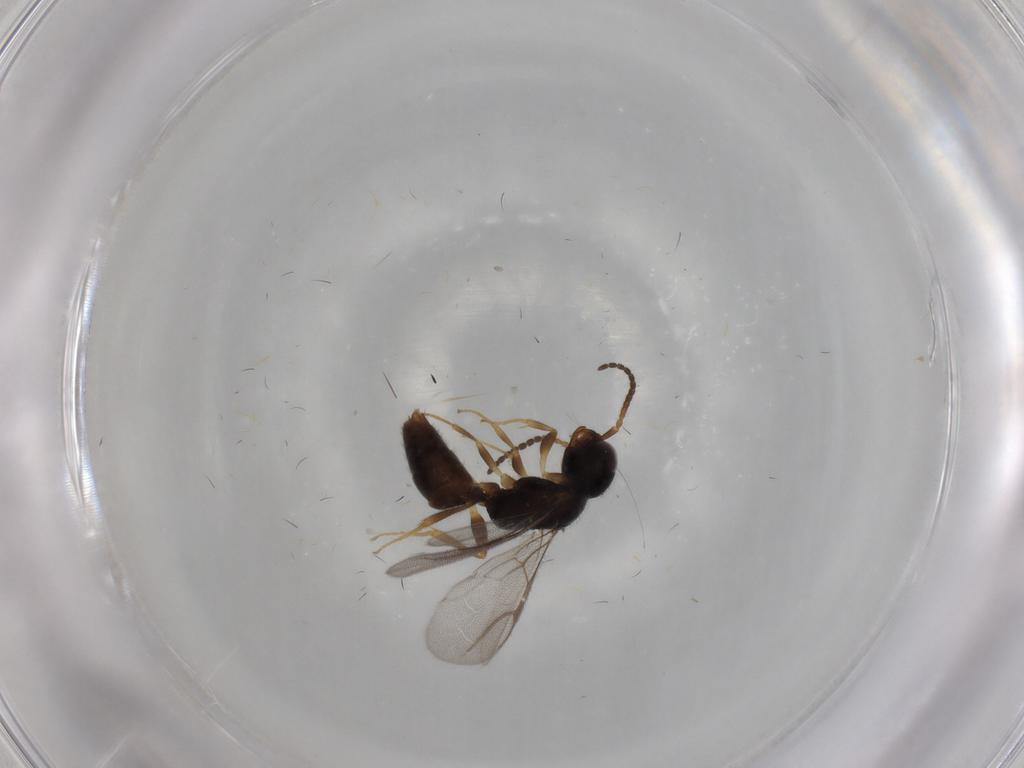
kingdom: Animalia
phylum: Arthropoda
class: Insecta
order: Hymenoptera
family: Bethylidae
